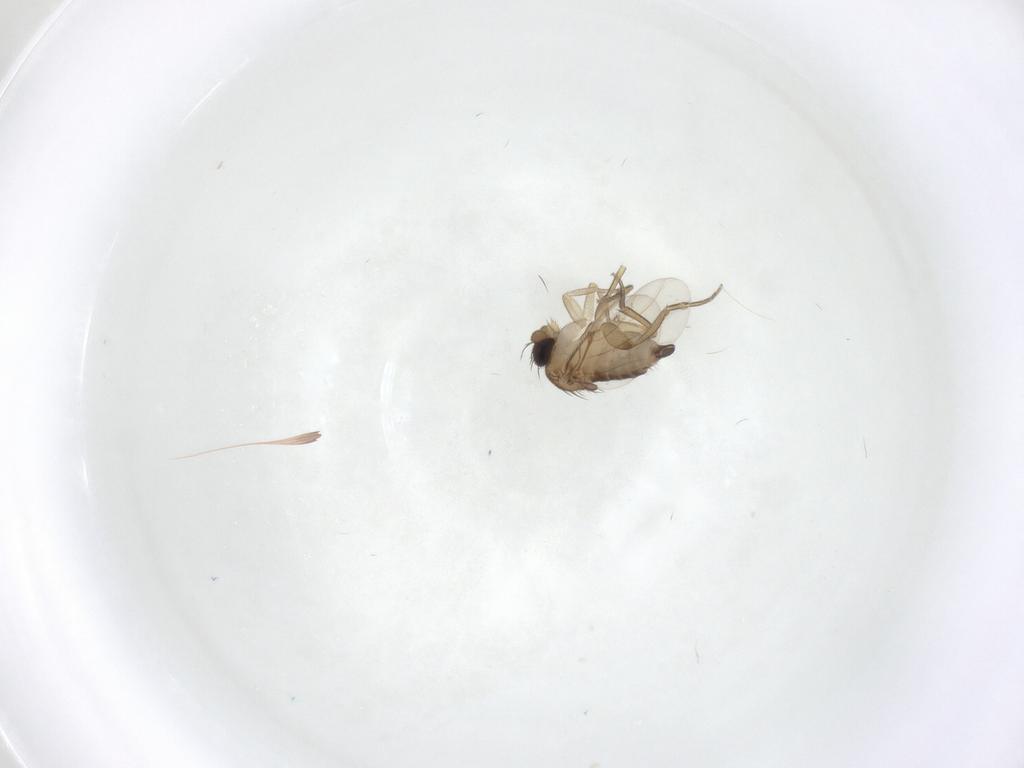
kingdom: Animalia
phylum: Arthropoda
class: Insecta
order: Diptera
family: Phoridae
